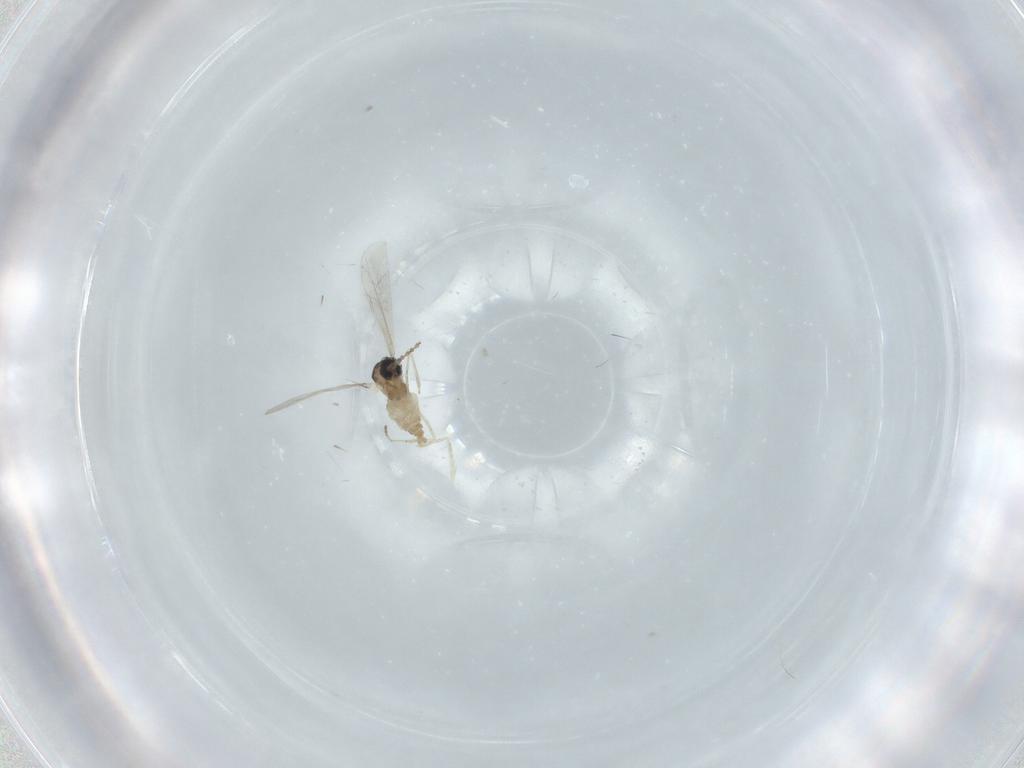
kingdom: Animalia
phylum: Arthropoda
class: Insecta
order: Diptera
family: Cecidomyiidae
